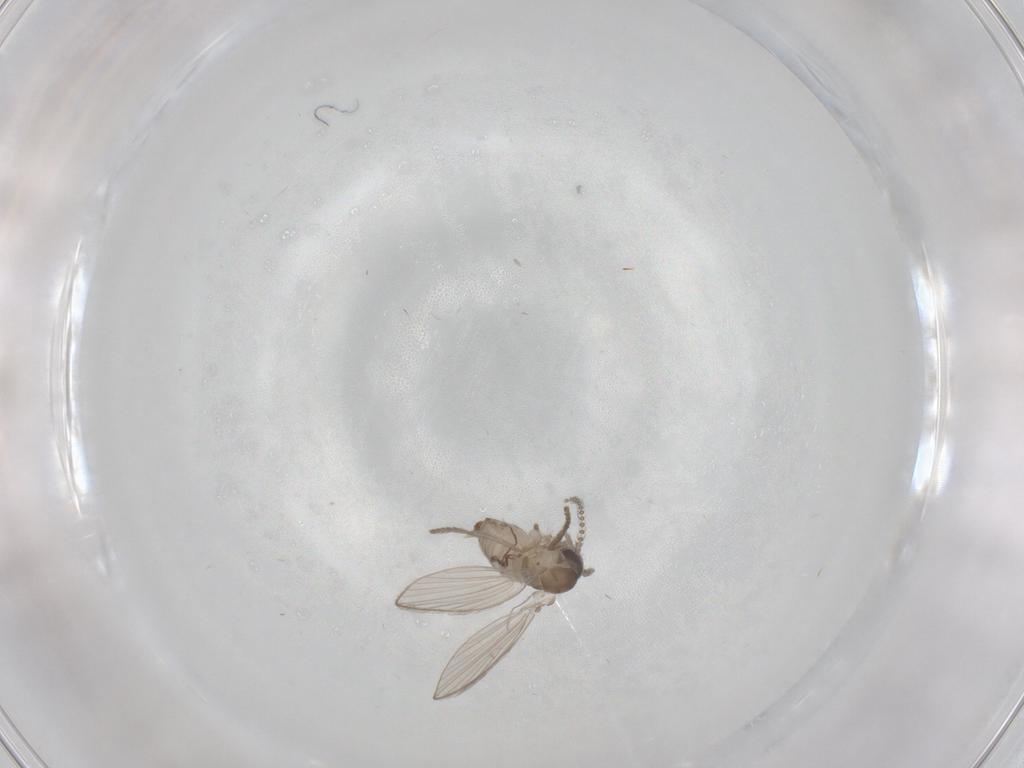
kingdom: Animalia
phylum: Arthropoda
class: Insecta
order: Diptera
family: Psychodidae
